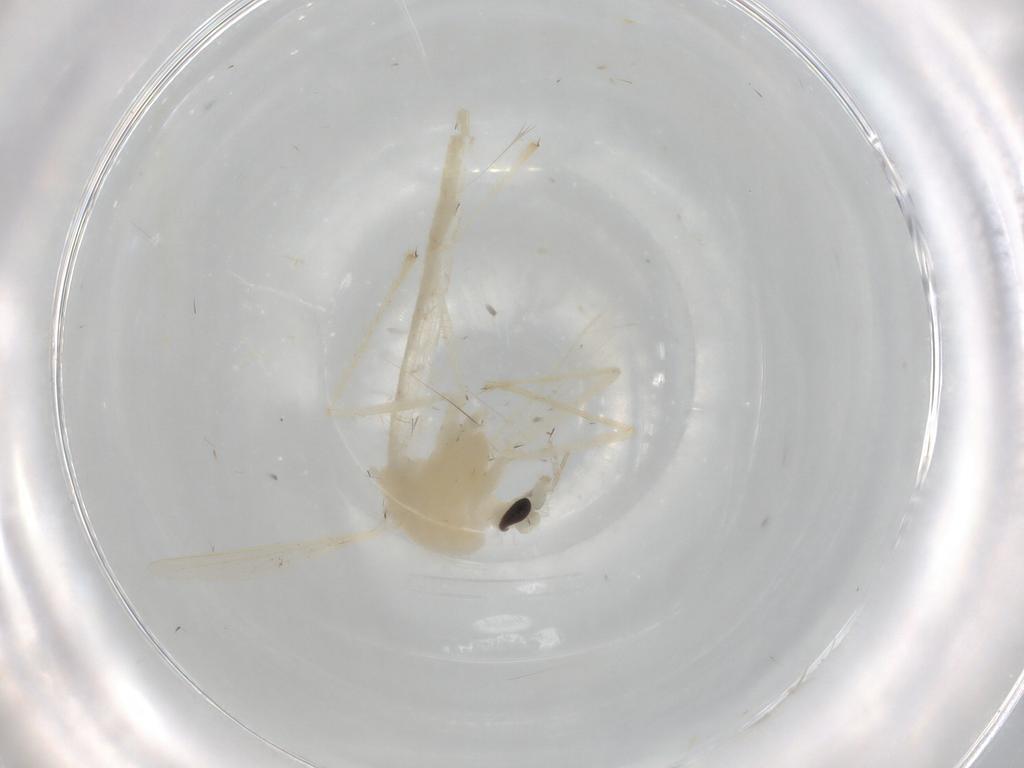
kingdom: Animalia
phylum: Arthropoda
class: Insecta
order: Diptera
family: Chironomidae
